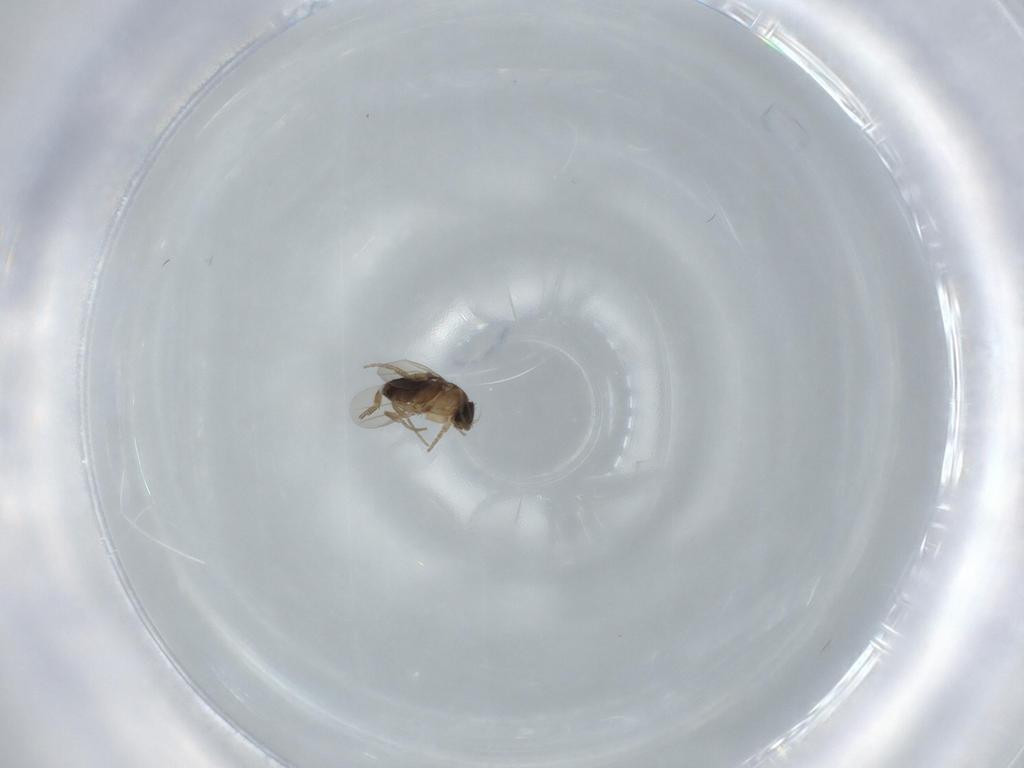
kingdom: Animalia
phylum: Arthropoda
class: Insecta
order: Diptera
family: Phoridae
